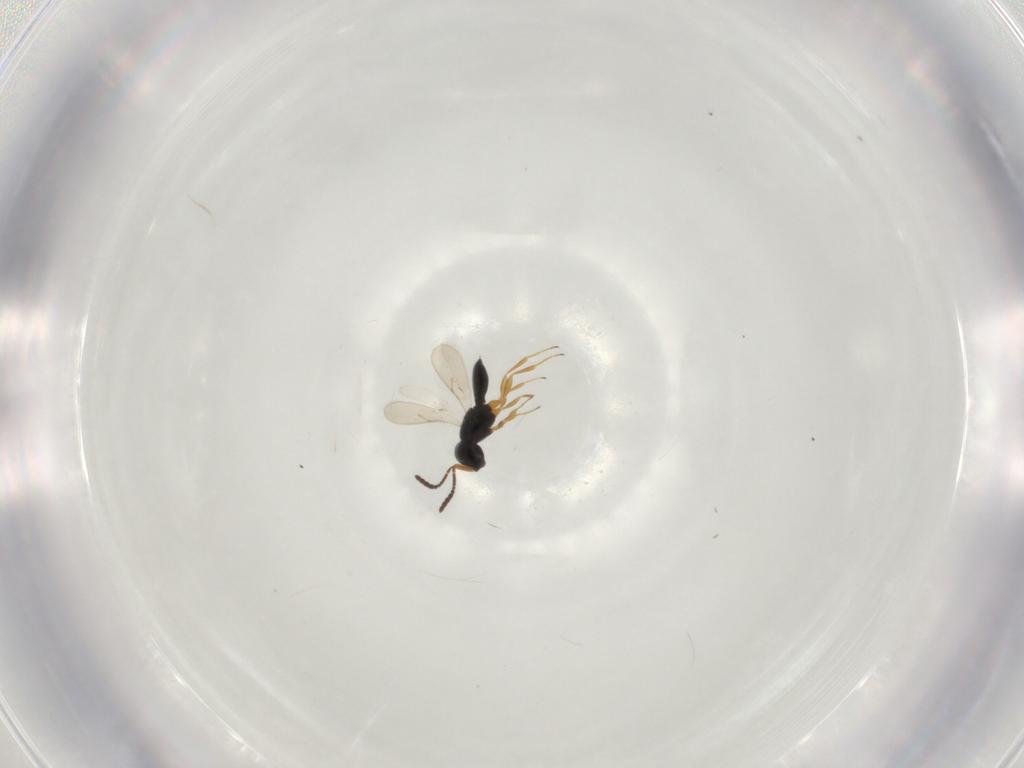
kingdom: Animalia
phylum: Arthropoda
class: Insecta
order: Hymenoptera
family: Scelionidae
